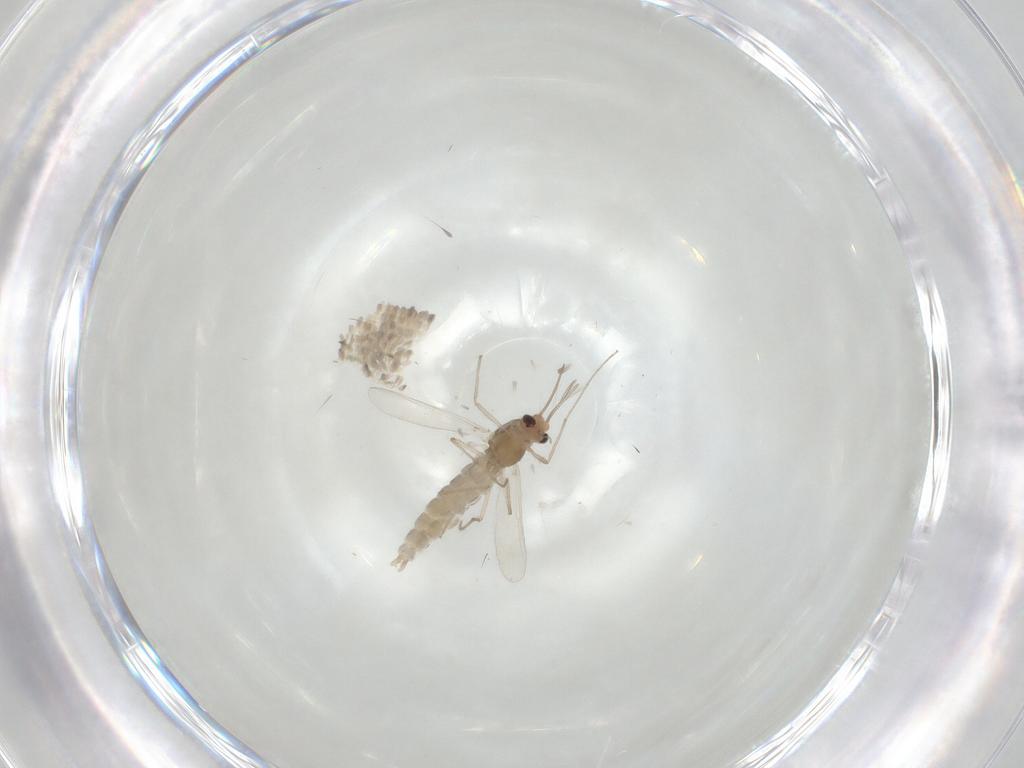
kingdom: Animalia
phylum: Arthropoda
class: Insecta
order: Diptera
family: Chironomidae
